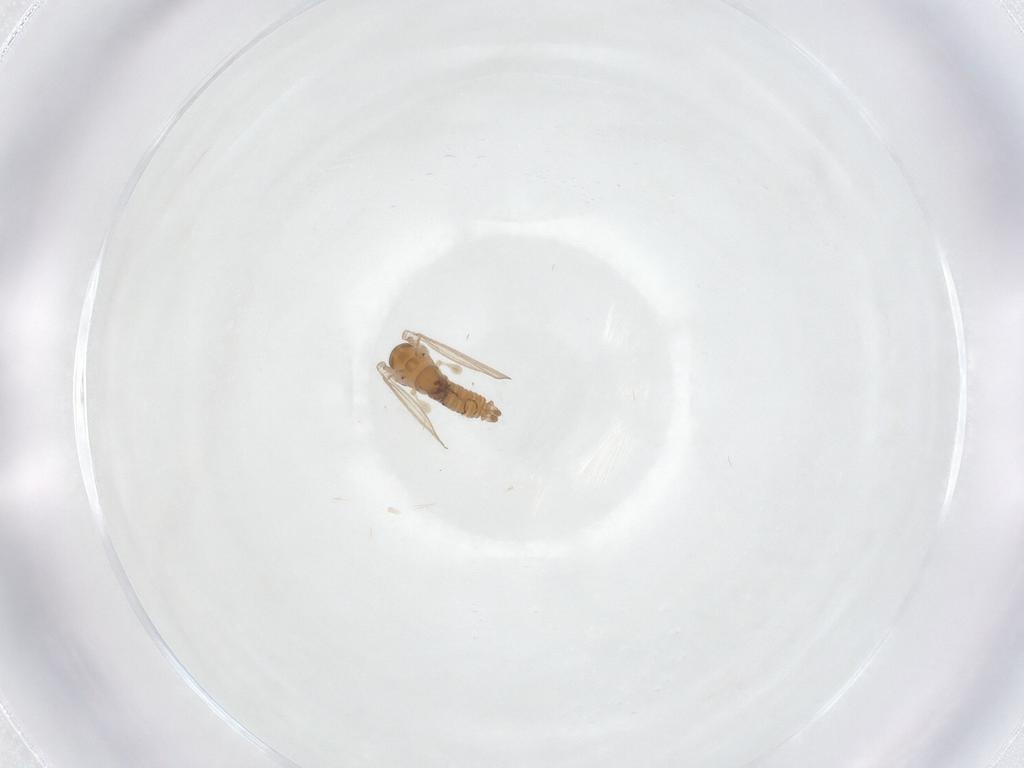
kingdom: Animalia
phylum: Arthropoda
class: Insecta
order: Diptera
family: Psychodidae
